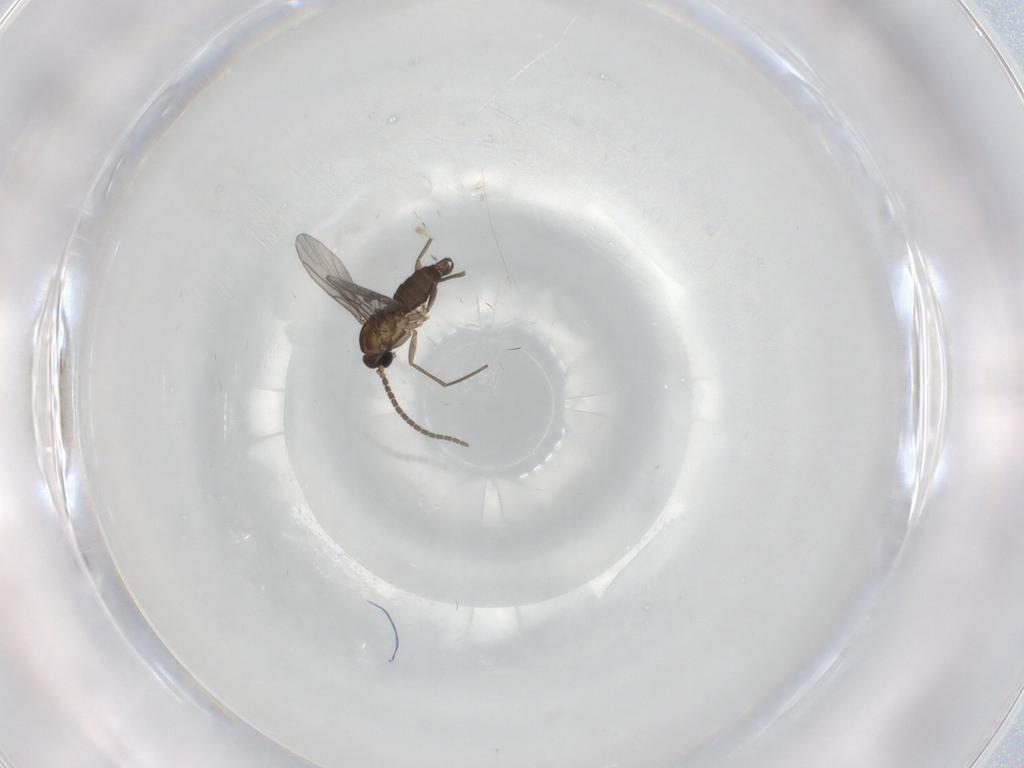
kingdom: Animalia
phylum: Arthropoda
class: Insecta
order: Diptera
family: Sciaridae
